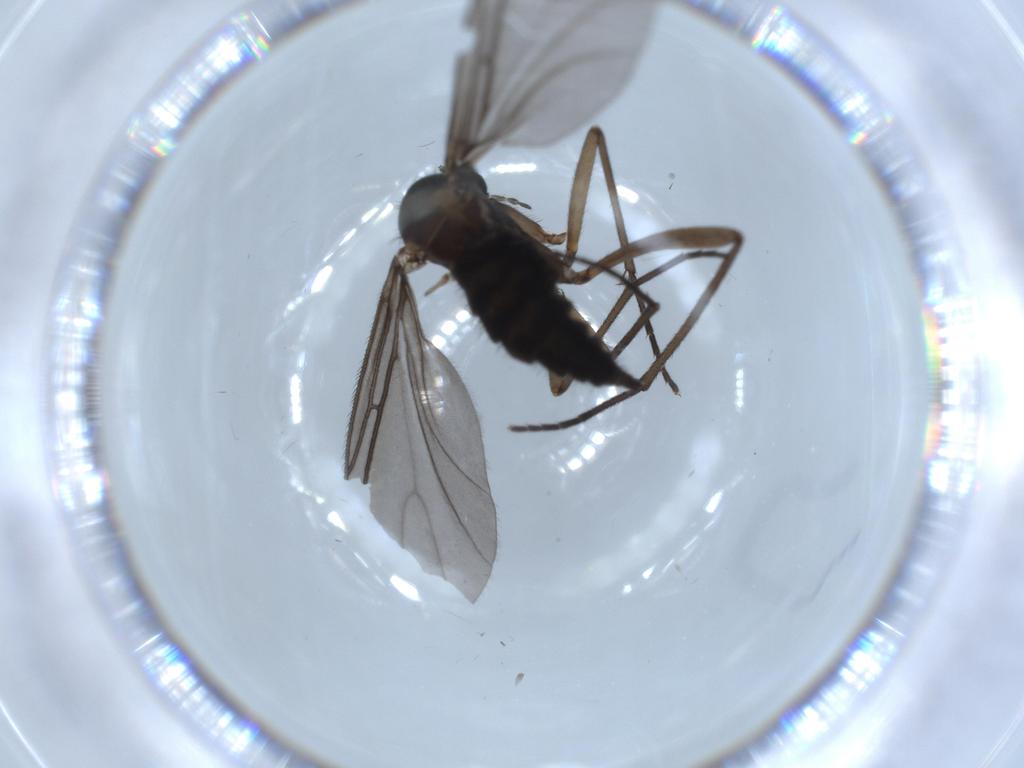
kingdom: Animalia
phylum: Arthropoda
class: Insecta
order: Diptera
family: Sciaridae
